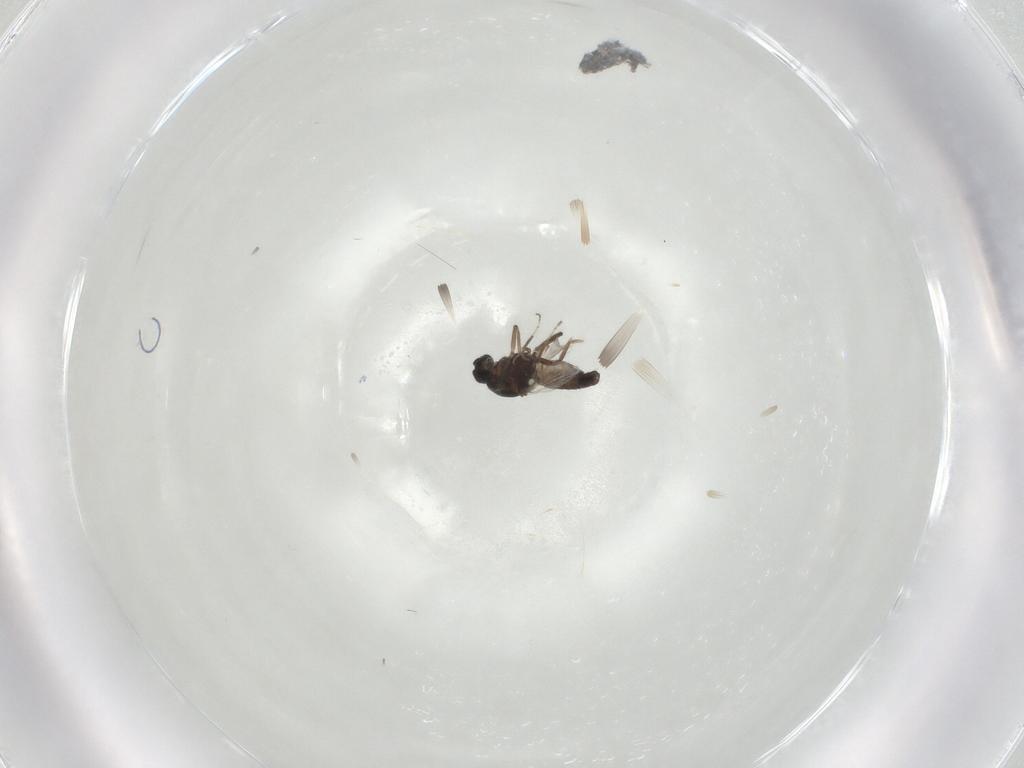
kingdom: Animalia
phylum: Arthropoda
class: Insecta
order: Diptera
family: Ceratopogonidae
